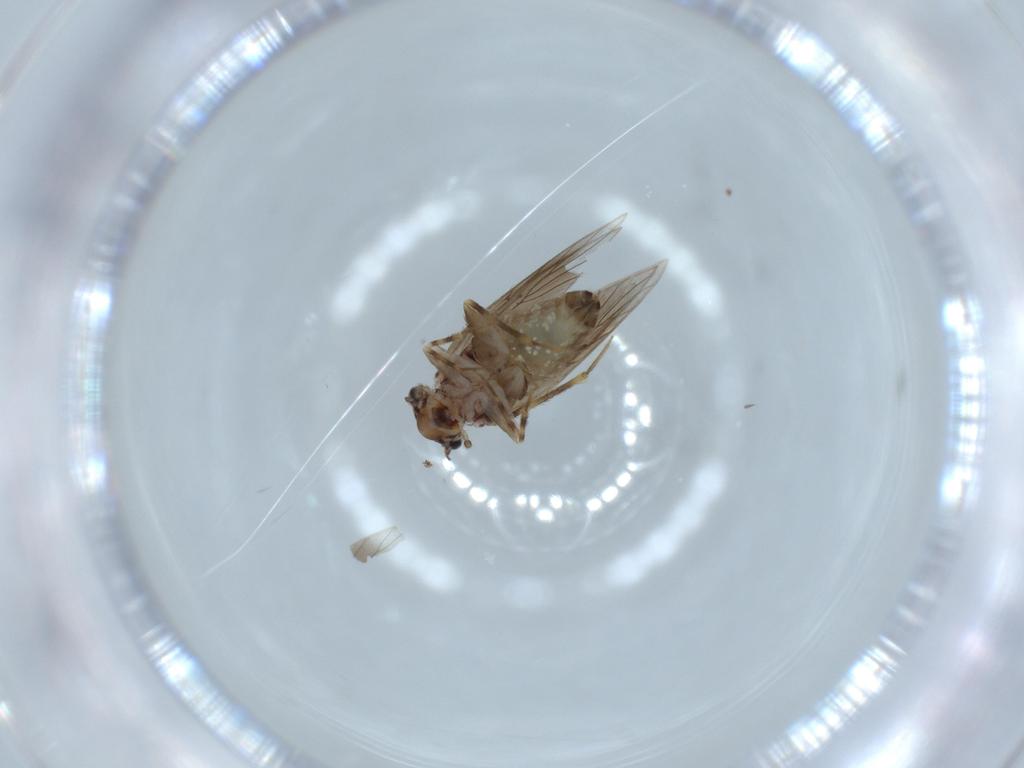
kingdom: Animalia
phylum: Arthropoda
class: Insecta
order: Psocodea
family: Lepidopsocidae
